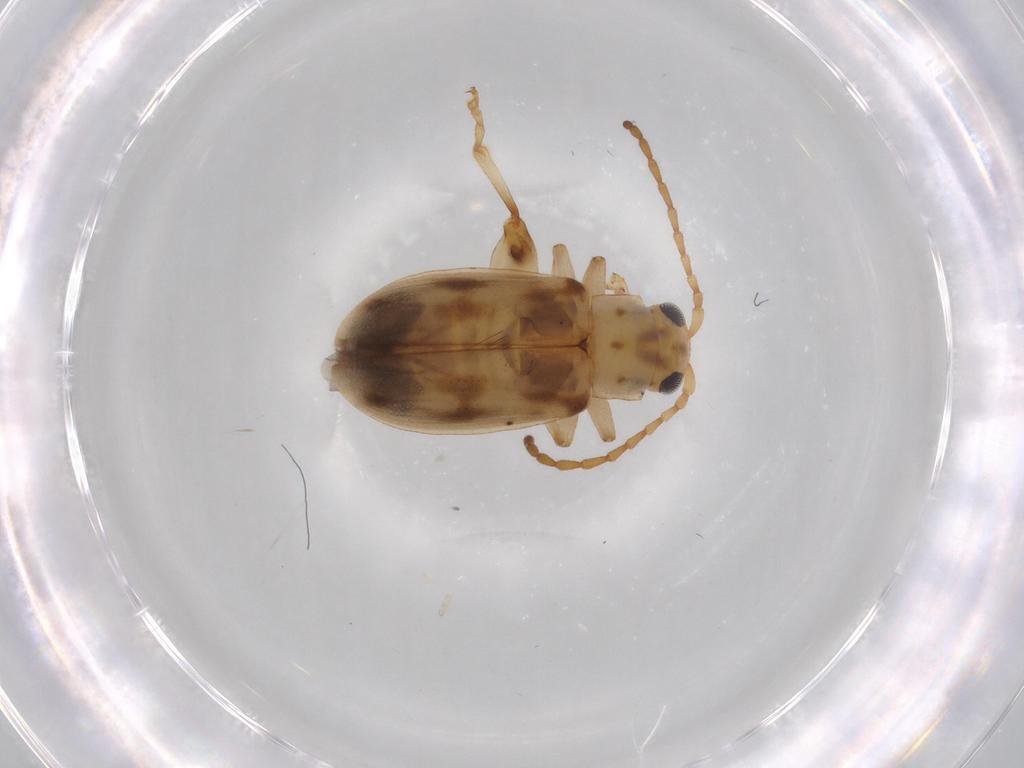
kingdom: Animalia
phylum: Arthropoda
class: Insecta
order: Coleoptera
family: Chrysomelidae
